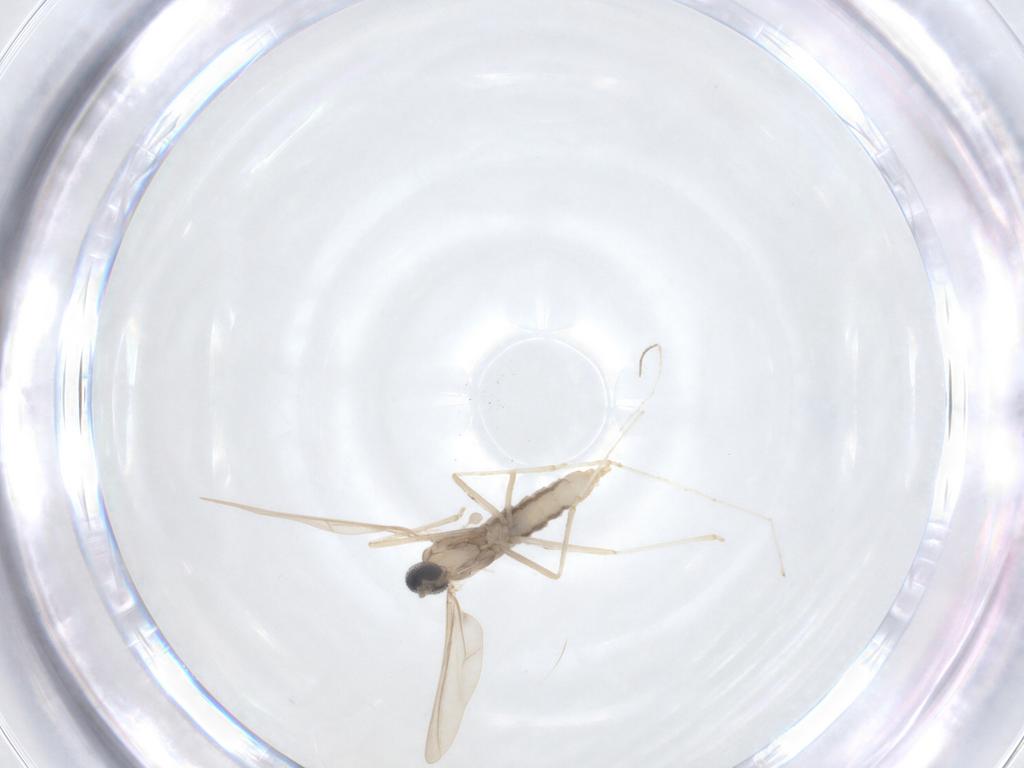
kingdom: Animalia
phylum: Arthropoda
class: Insecta
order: Diptera
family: Cecidomyiidae
